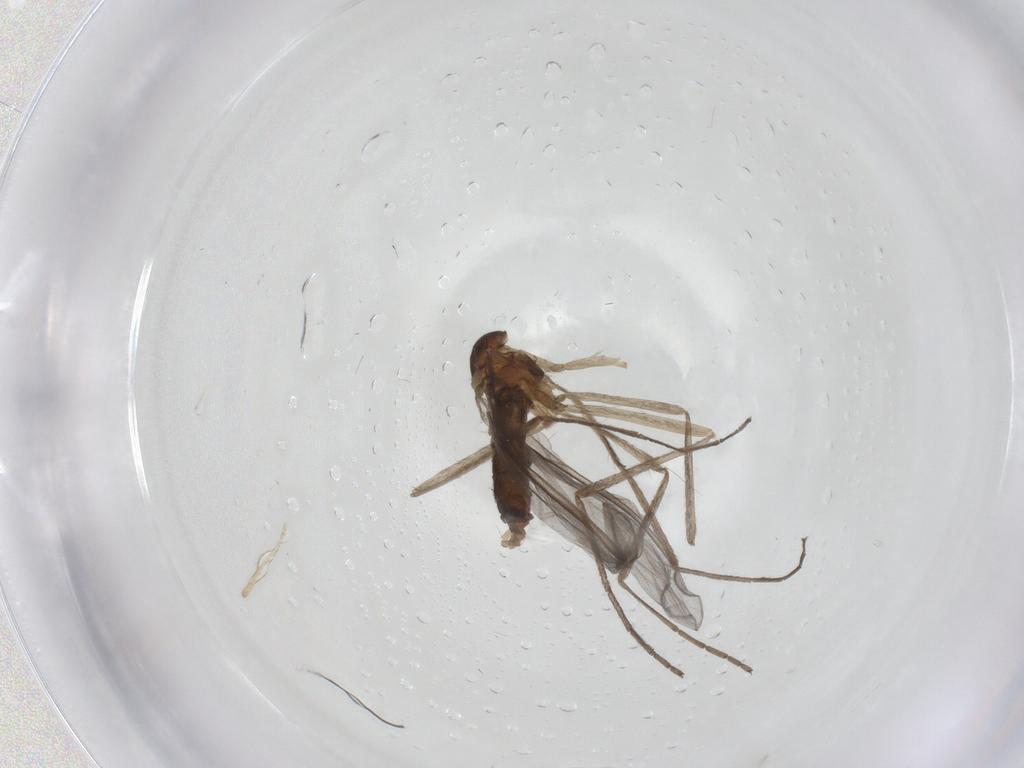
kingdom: Animalia
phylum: Arthropoda
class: Insecta
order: Diptera
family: Cecidomyiidae
